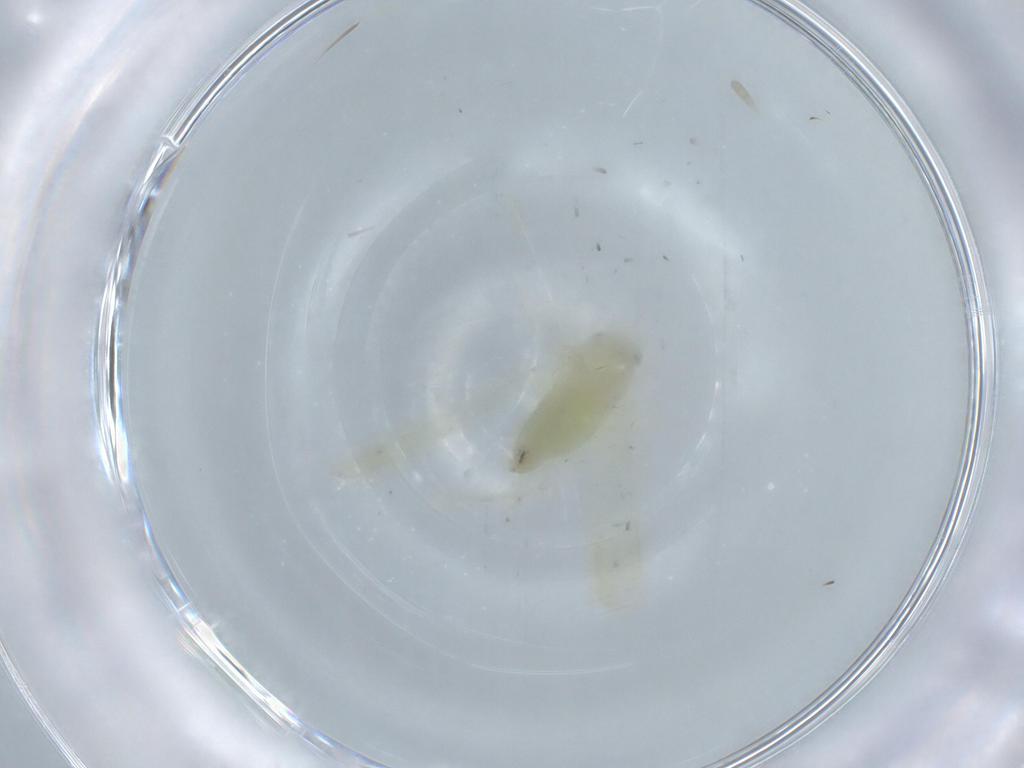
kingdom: Animalia
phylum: Arthropoda
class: Insecta
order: Hemiptera
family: Cicadellidae
